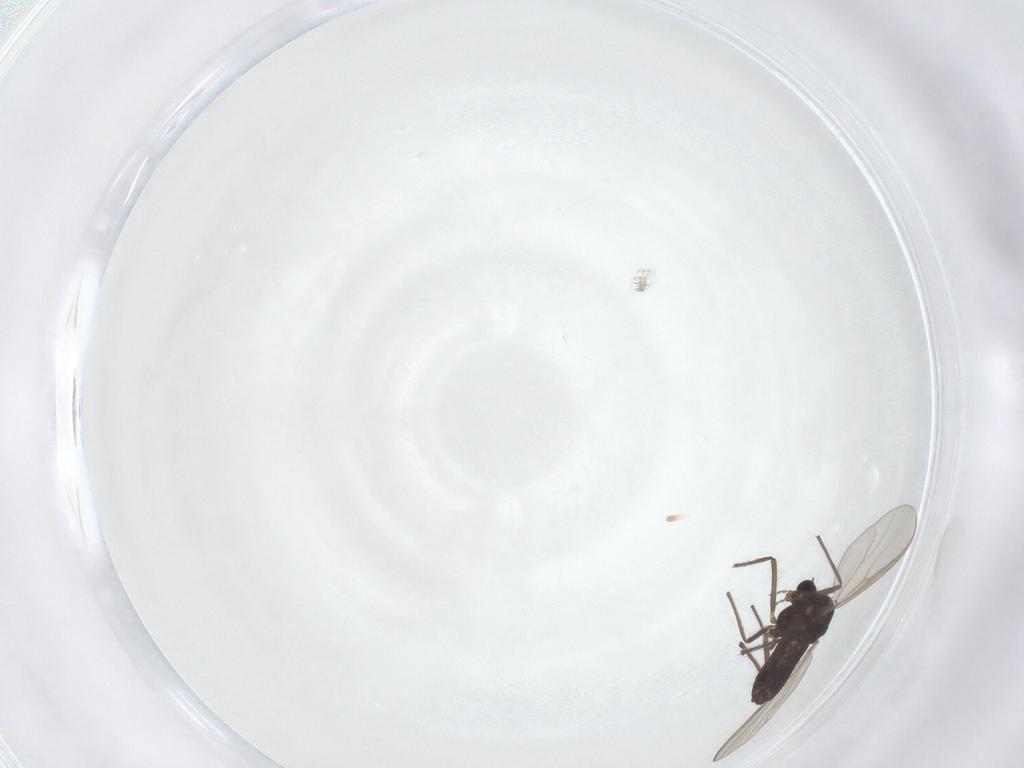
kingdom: Animalia
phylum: Arthropoda
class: Insecta
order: Diptera
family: Chironomidae
